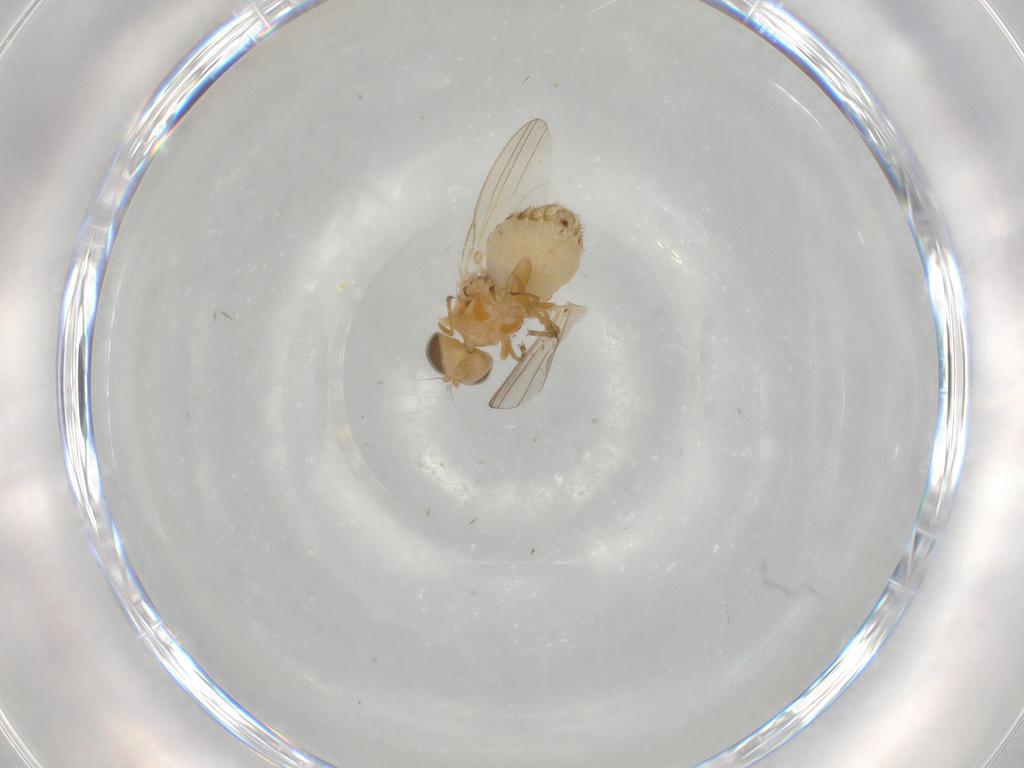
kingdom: Animalia
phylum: Arthropoda
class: Insecta
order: Diptera
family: Chyromyidae
